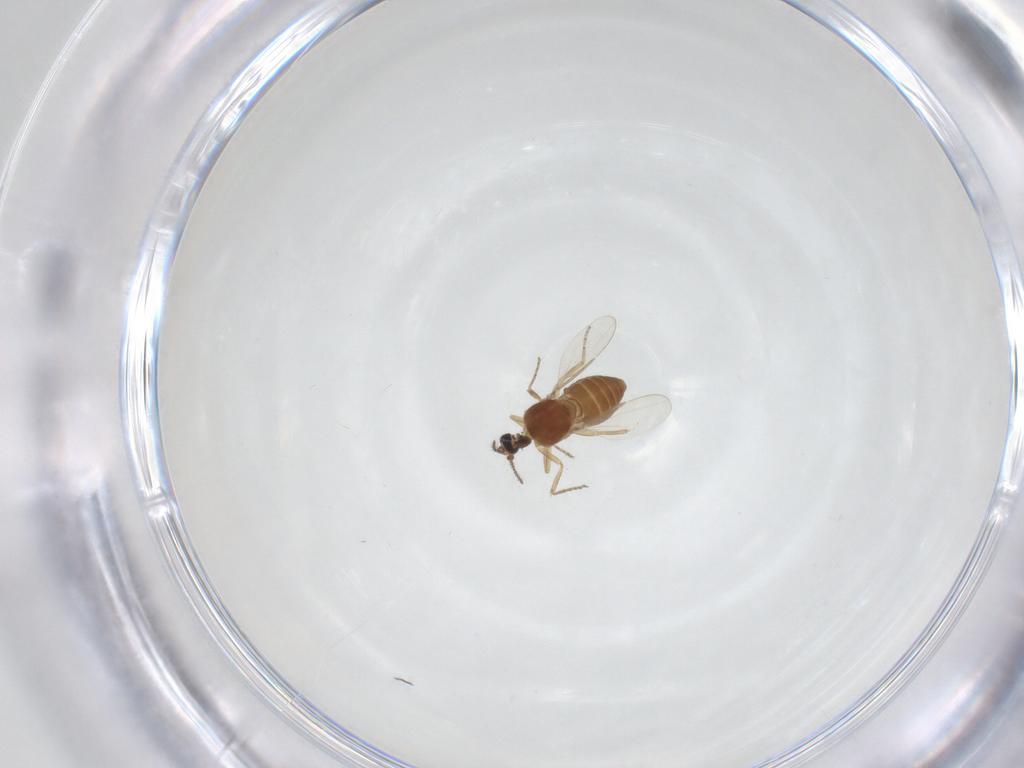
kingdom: Animalia
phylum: Arthropoda
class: Insecta
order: Diptera
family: Ceratopogonidae
